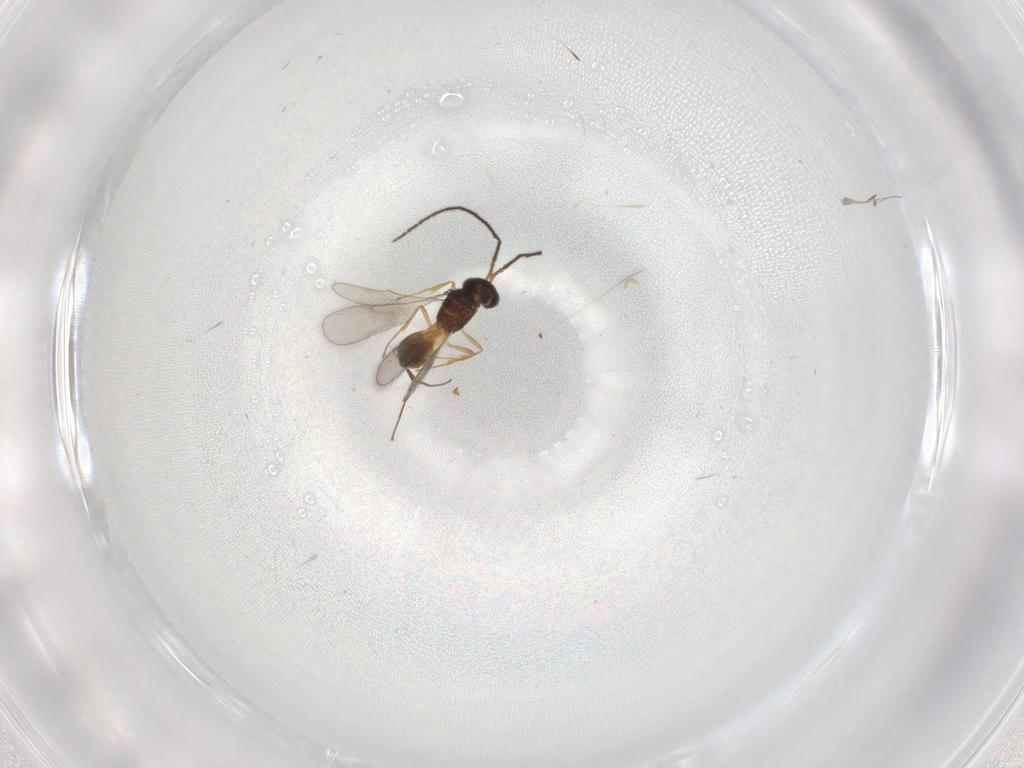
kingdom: Animalia
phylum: Arthropoda
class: Insecta
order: Hymenoptera
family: Scelionidae
